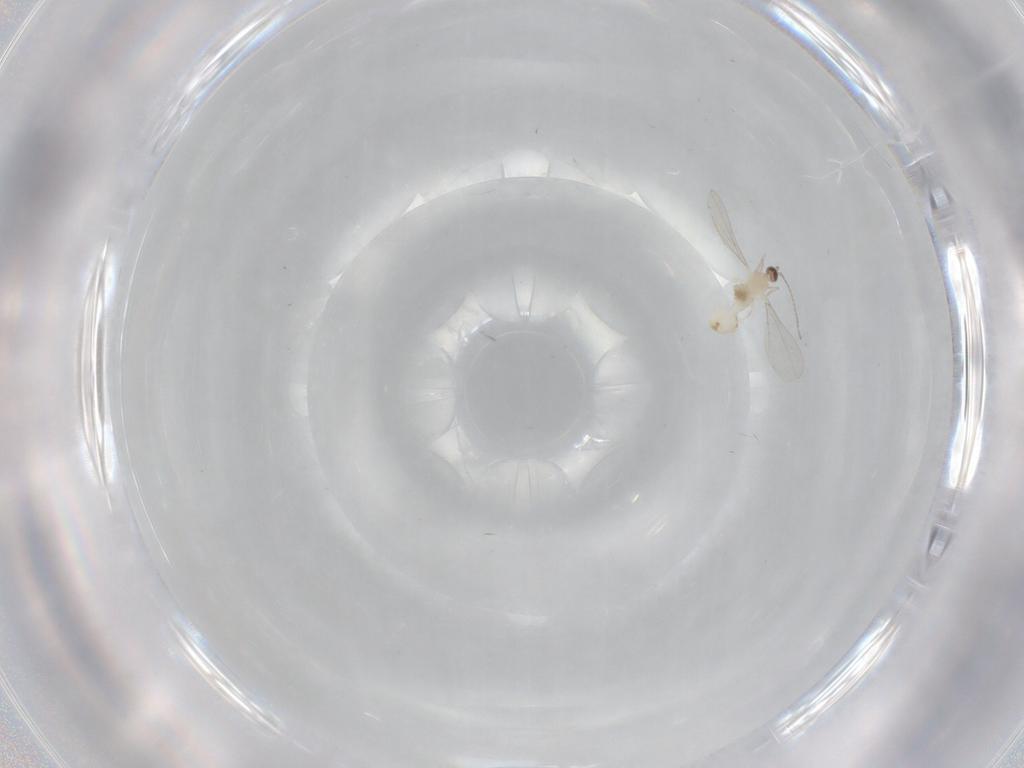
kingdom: Animalia
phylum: Arthropoda
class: Insecta
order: Diptera
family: Cecidomyiidae
